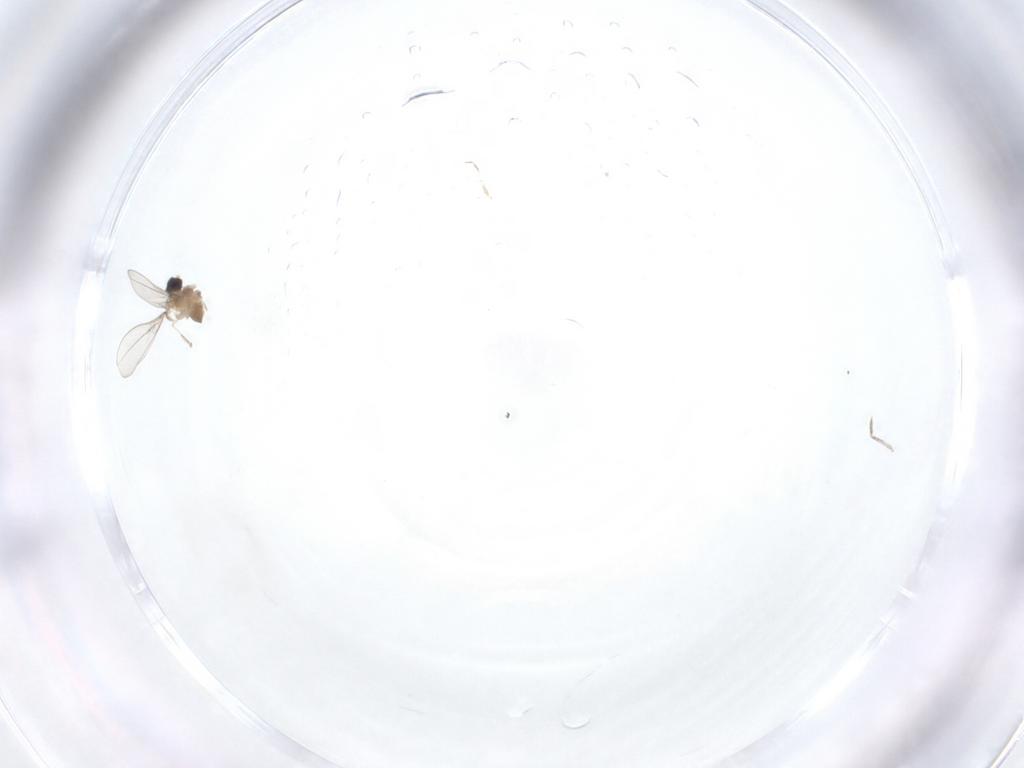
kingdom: Animalia
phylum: Arthropoda
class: Insecta
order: Diptera
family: Cecidomyiidae
